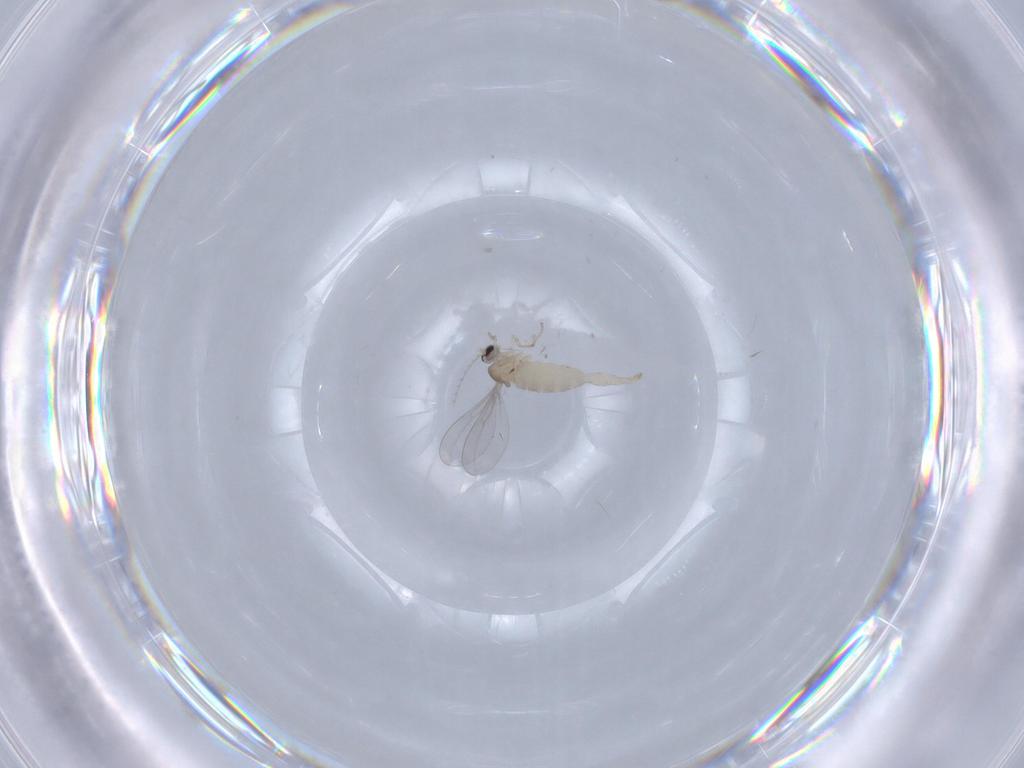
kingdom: Animalia
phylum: Arthropoda
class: Insecta
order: Diptera
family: Cecidomyiidae
